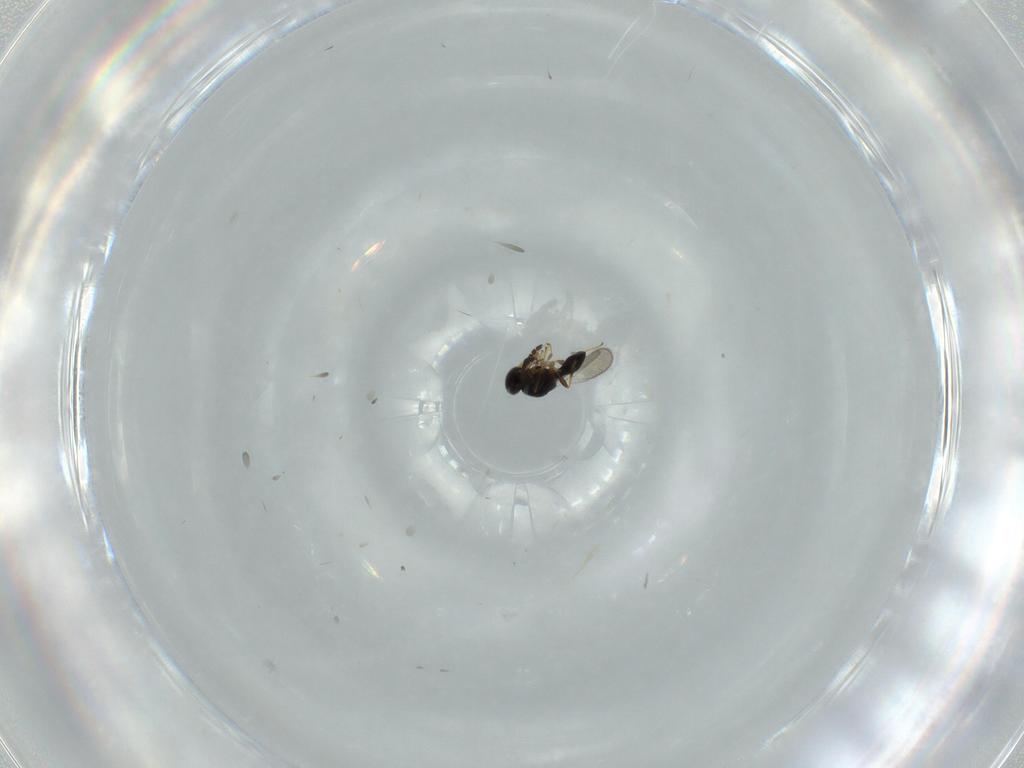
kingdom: Animalia
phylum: Arthropoda
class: Insecta
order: Hymenoptera
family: Platygastridae
